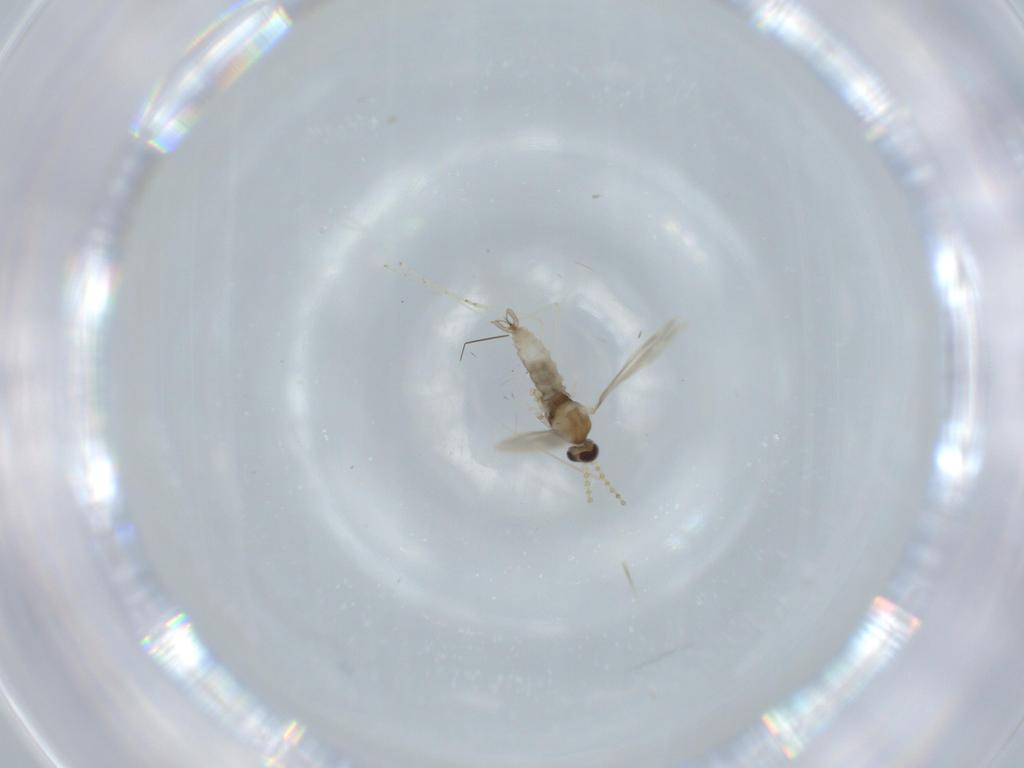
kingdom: Animalia
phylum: Arthropoda
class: Insecta
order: Diptera
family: Cecidomyiidae
